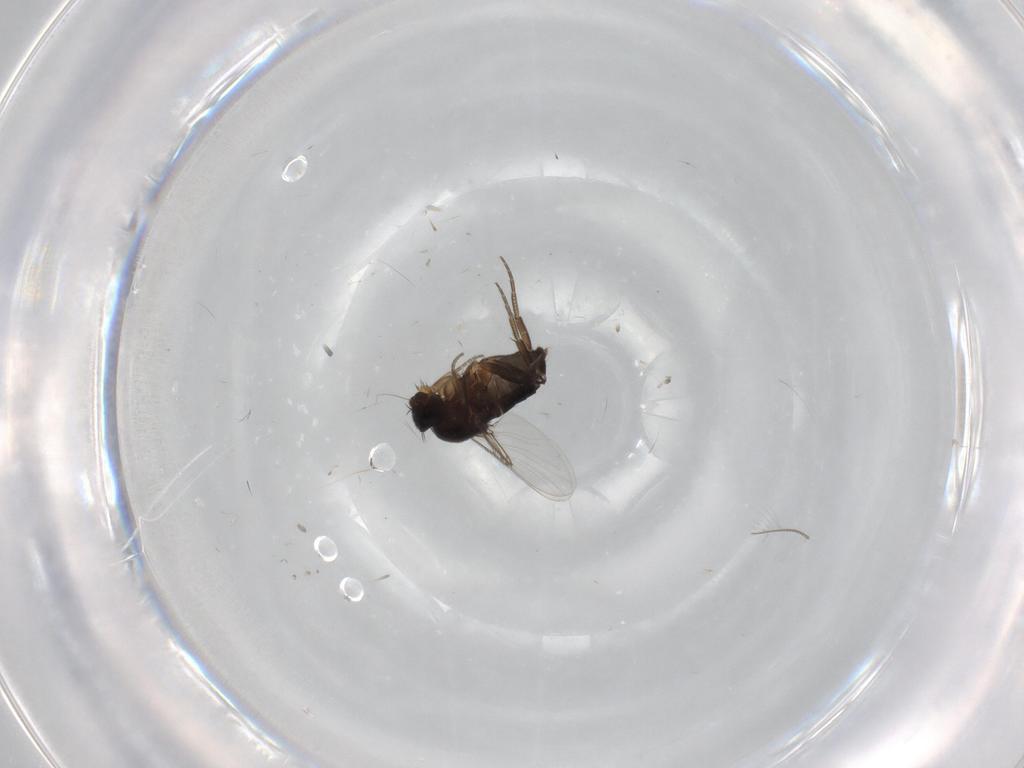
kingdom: Animalia
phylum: Arthropoda
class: Insecta
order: Diptera
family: Phoridae
